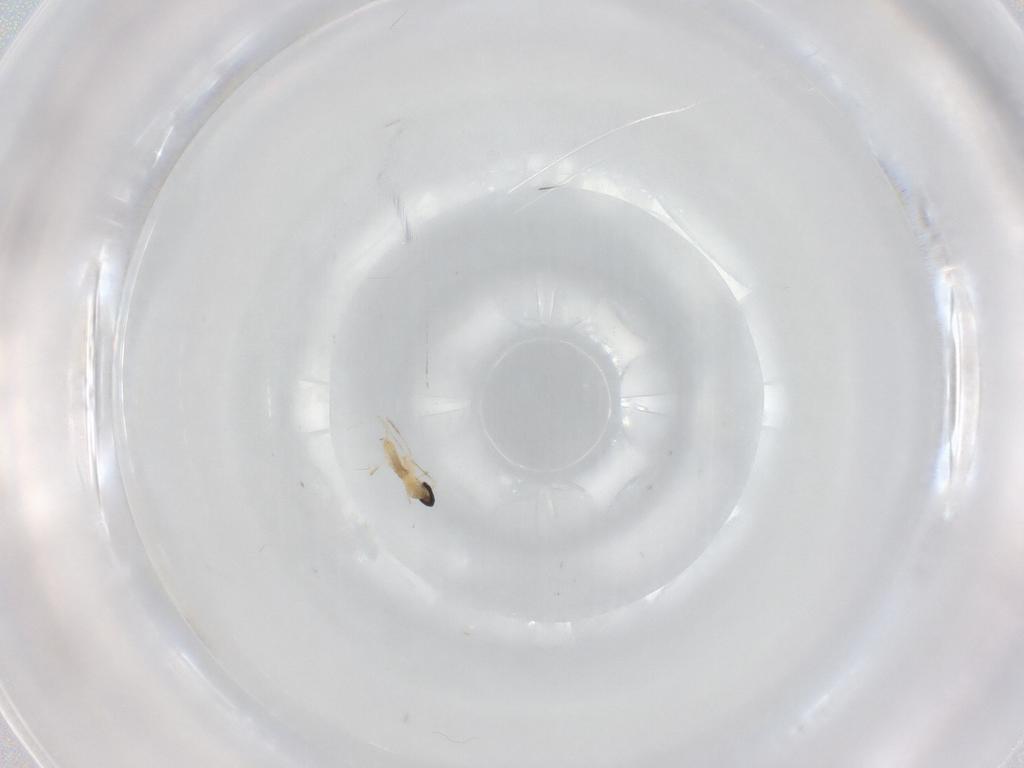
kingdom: Animalia
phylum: Arthropoda
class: Insecta
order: Diptera
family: Cecidomyiidae
